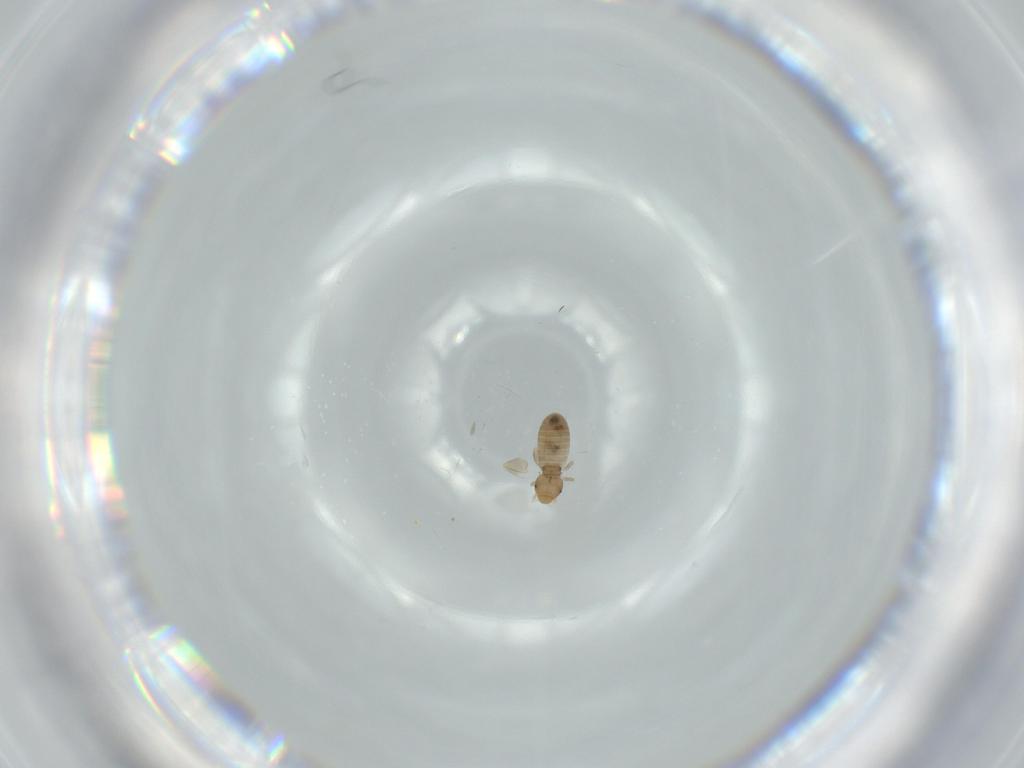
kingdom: Animalia
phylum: Arthropoda
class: Insecta
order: Psocodea
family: Liposcelididae
